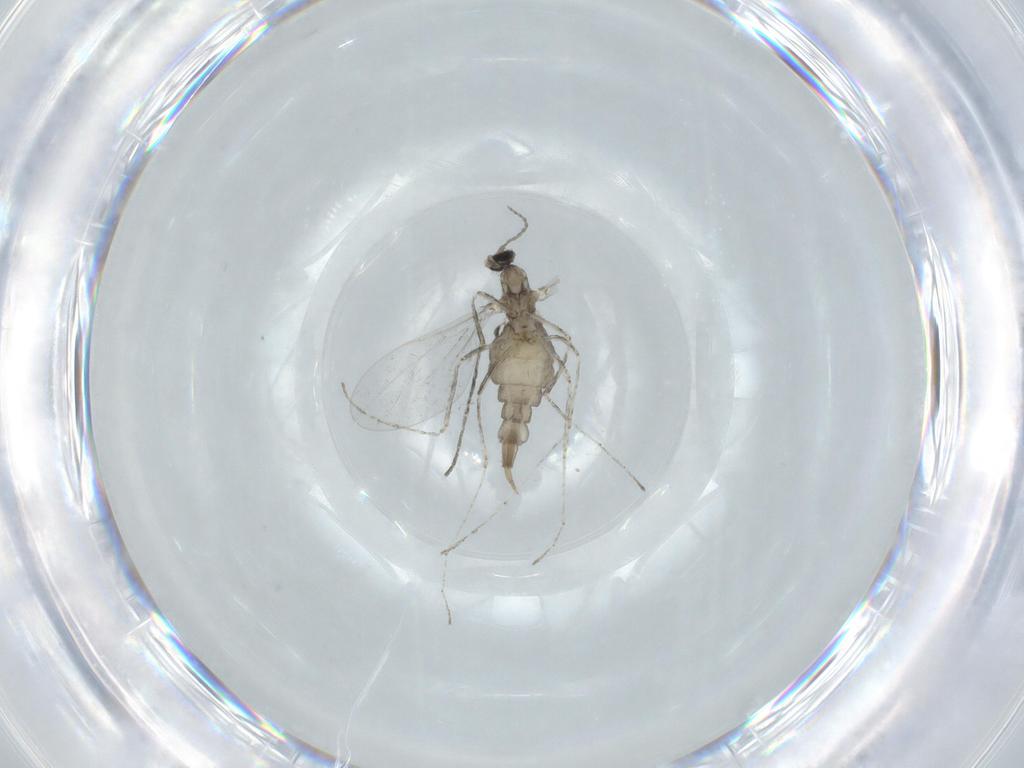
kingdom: Animalia
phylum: Arthropoda
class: Insecta
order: Diptera
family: Cecidomyiidae
